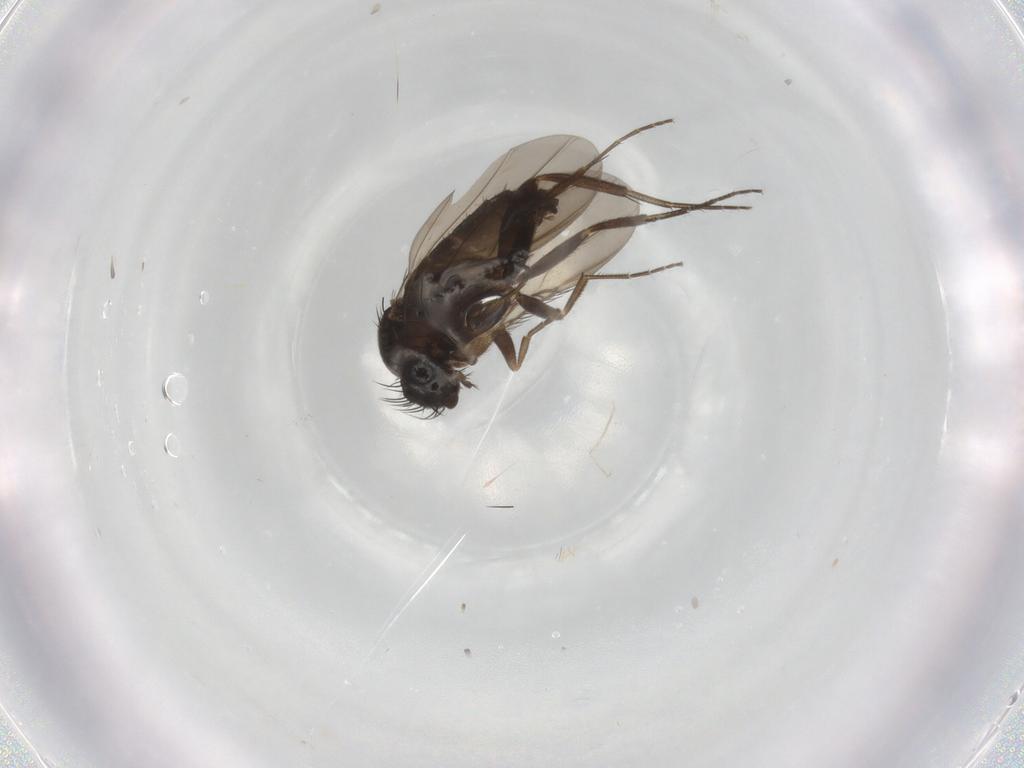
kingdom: Animalia
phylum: Arthropoda
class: Insecta
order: Diptera
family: Phoridae
